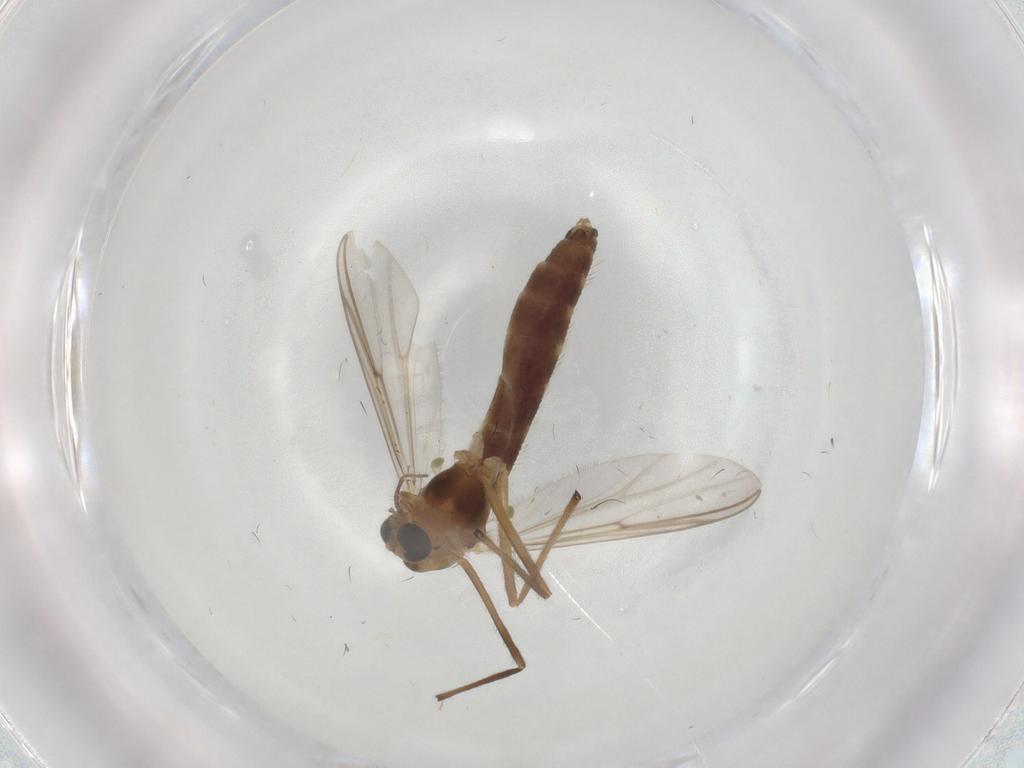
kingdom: Animalia
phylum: Arthropoda
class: Insecta
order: Diptera
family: Chironomidae
